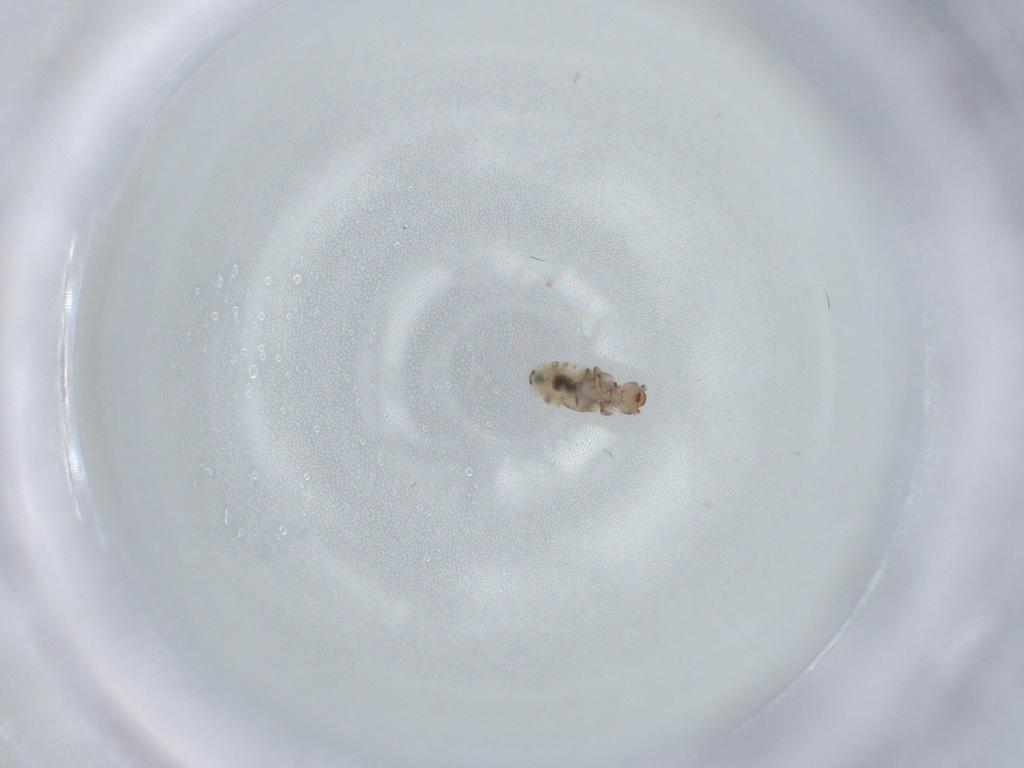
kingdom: Animalia
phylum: Arthropoda
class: Insecta
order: Psocodea
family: Liposcelididae
